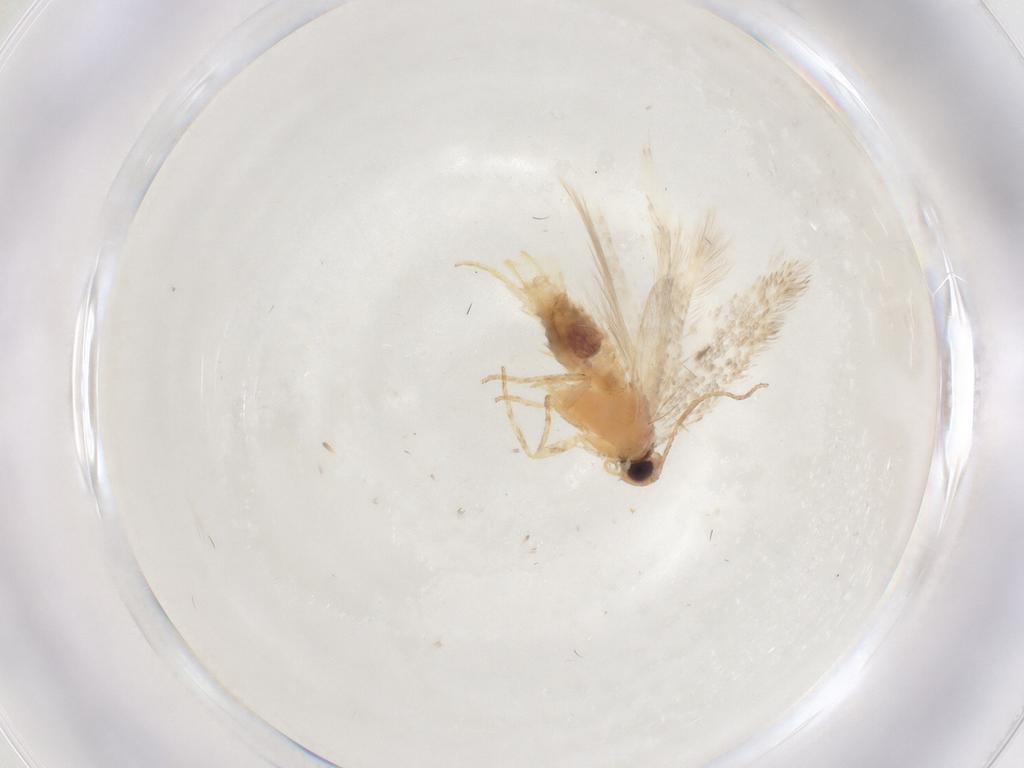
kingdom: Animalia
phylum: Arthropoda
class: Insecta
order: Lepidoptera
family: Gelechiidae
